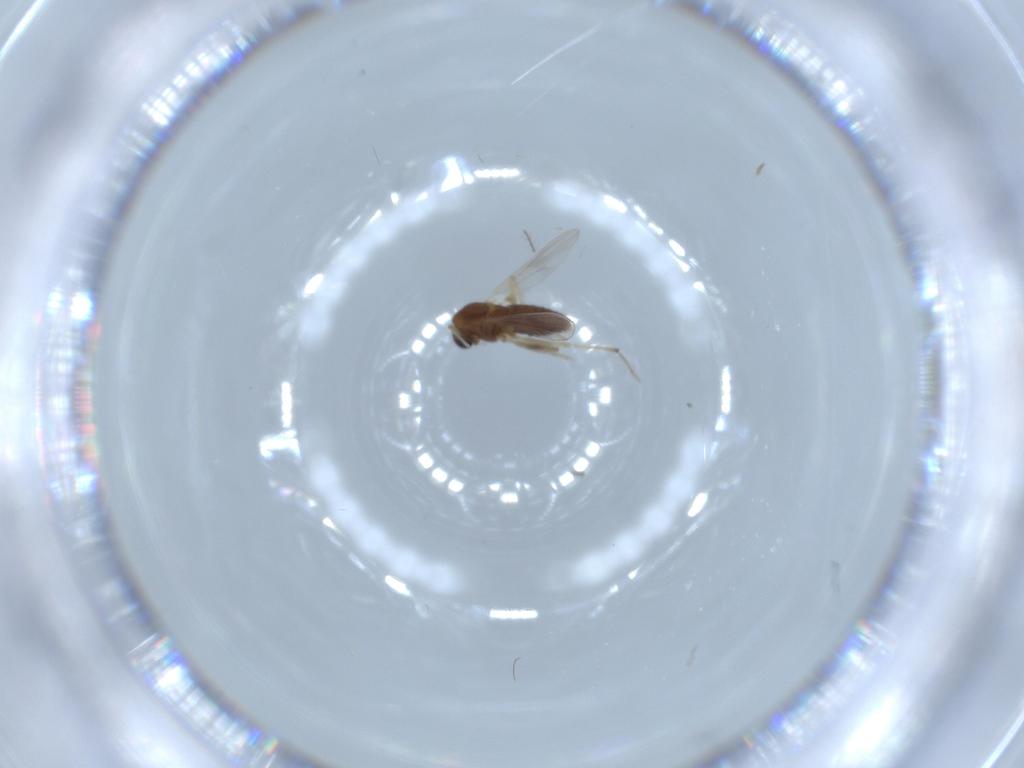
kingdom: Animalia
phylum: Arthropoda
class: Insecta
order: Diptera
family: Chironomidae
